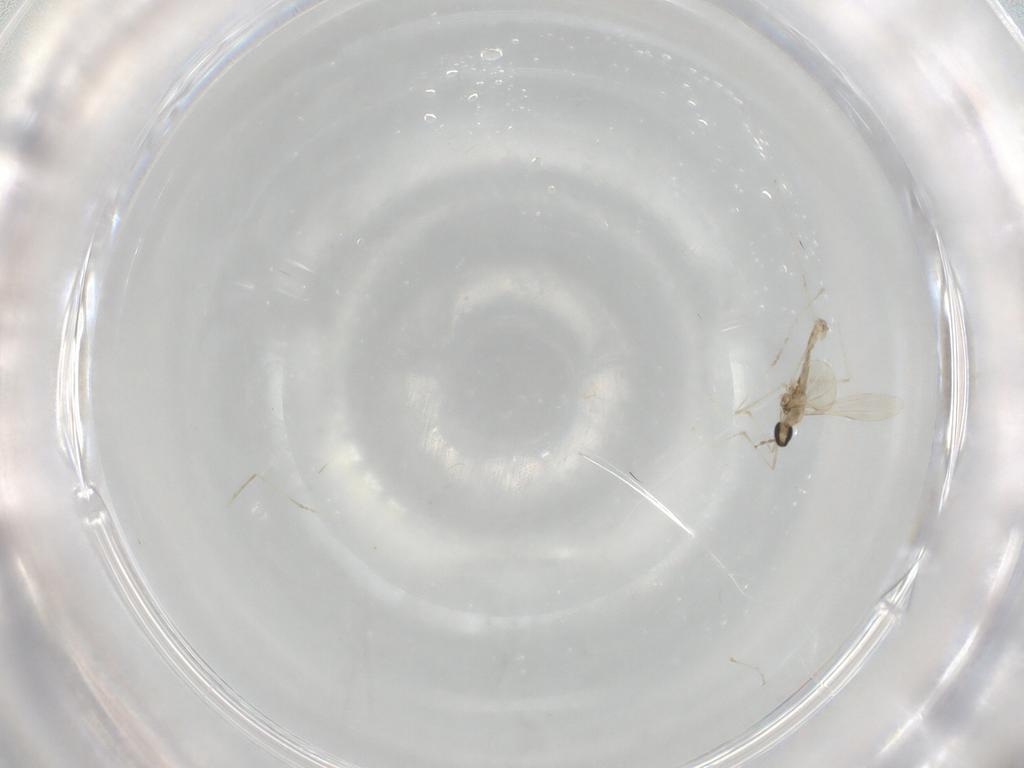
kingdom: Animalia
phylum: Arthropoda
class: Insecta
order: Diptera
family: Cecidomyiidae
